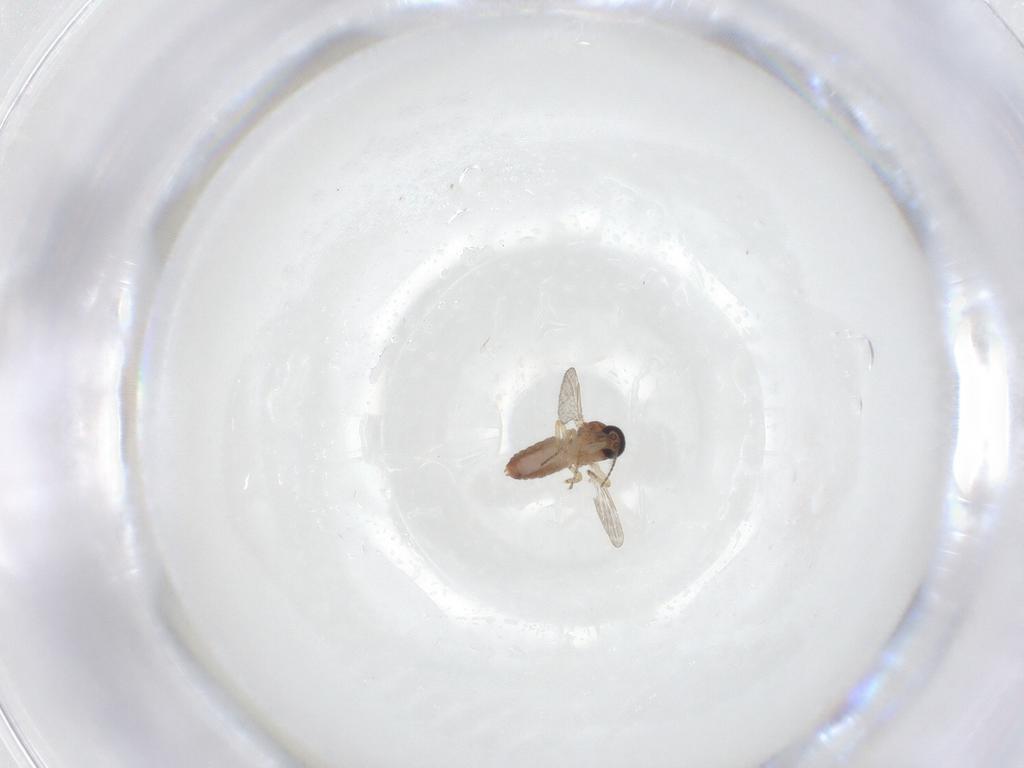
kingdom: Animalia
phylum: Arthropoda
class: Insecta
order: Diptera
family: Ceratopogonidae
